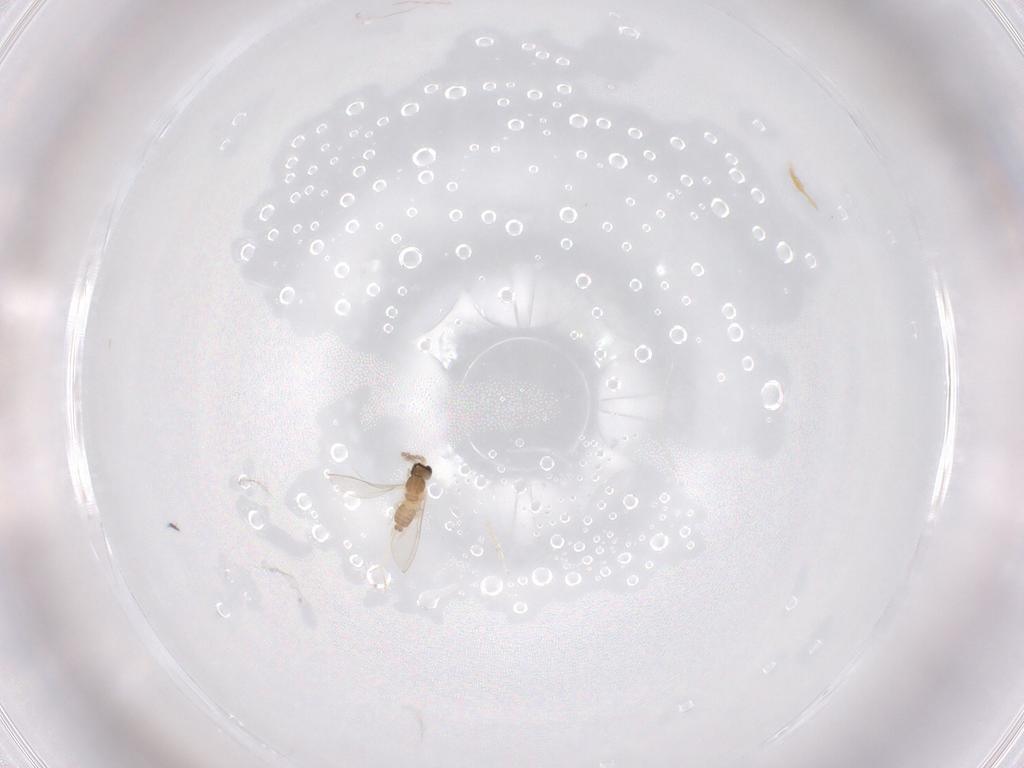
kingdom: Animalia
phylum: Arthropoda
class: Insecta
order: Diptera
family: Cecidomyiidae
